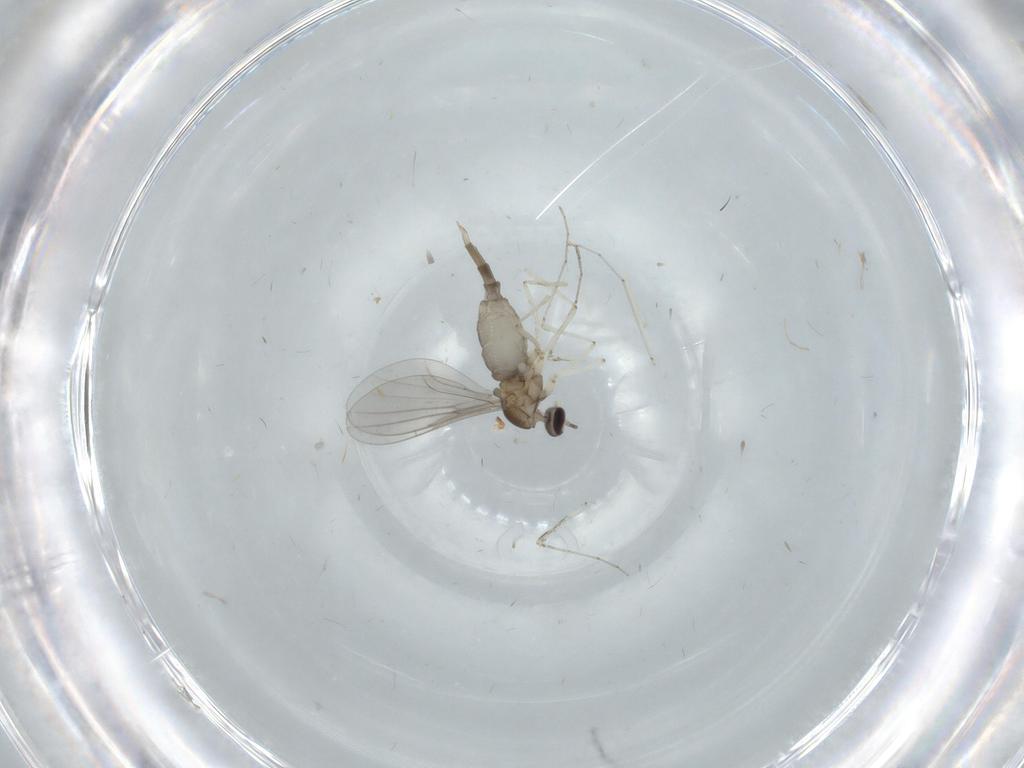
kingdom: Animalia
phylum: Arthropoda
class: Insecta
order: Diptera
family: Cecidomyiidae
